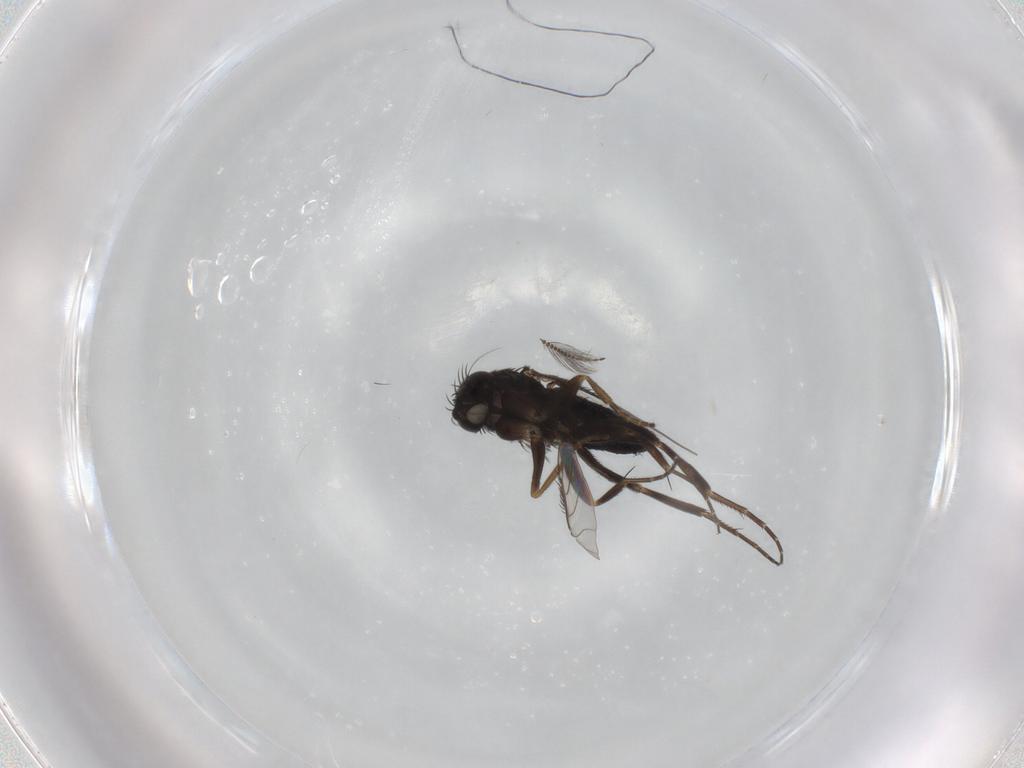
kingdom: Animalia
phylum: Arthropoda
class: Insecta
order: Diptera
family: Phoridae
